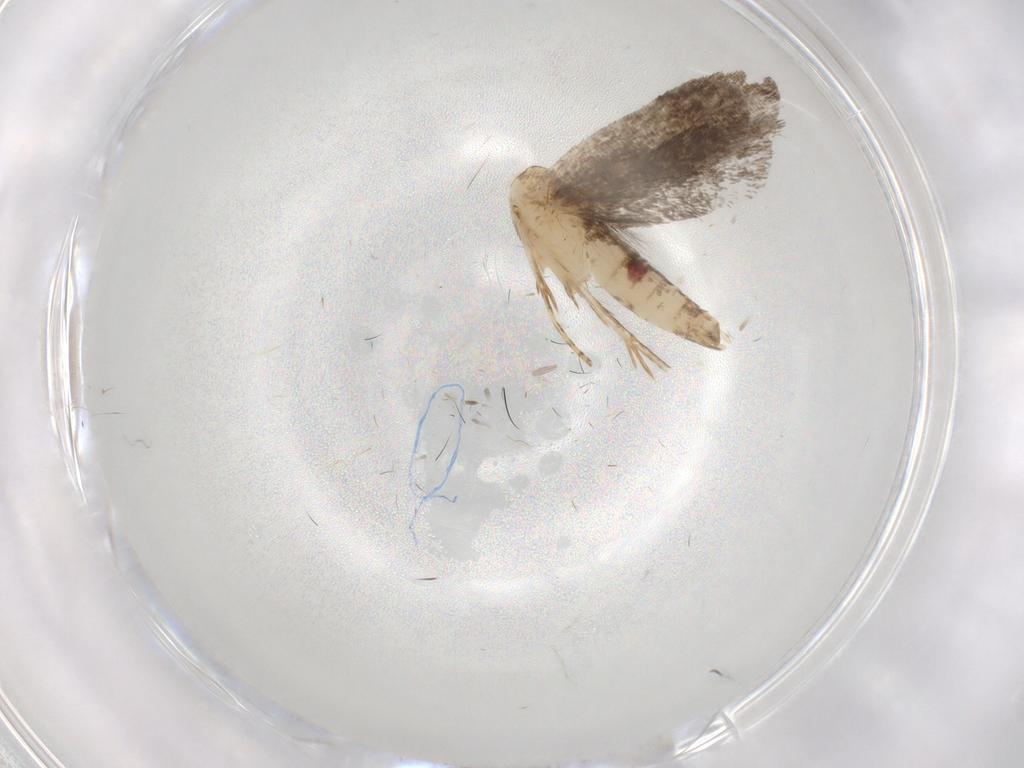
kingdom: Animalia
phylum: Arthropoda
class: Insecta
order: Lepidoptera
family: Gelechiidae
